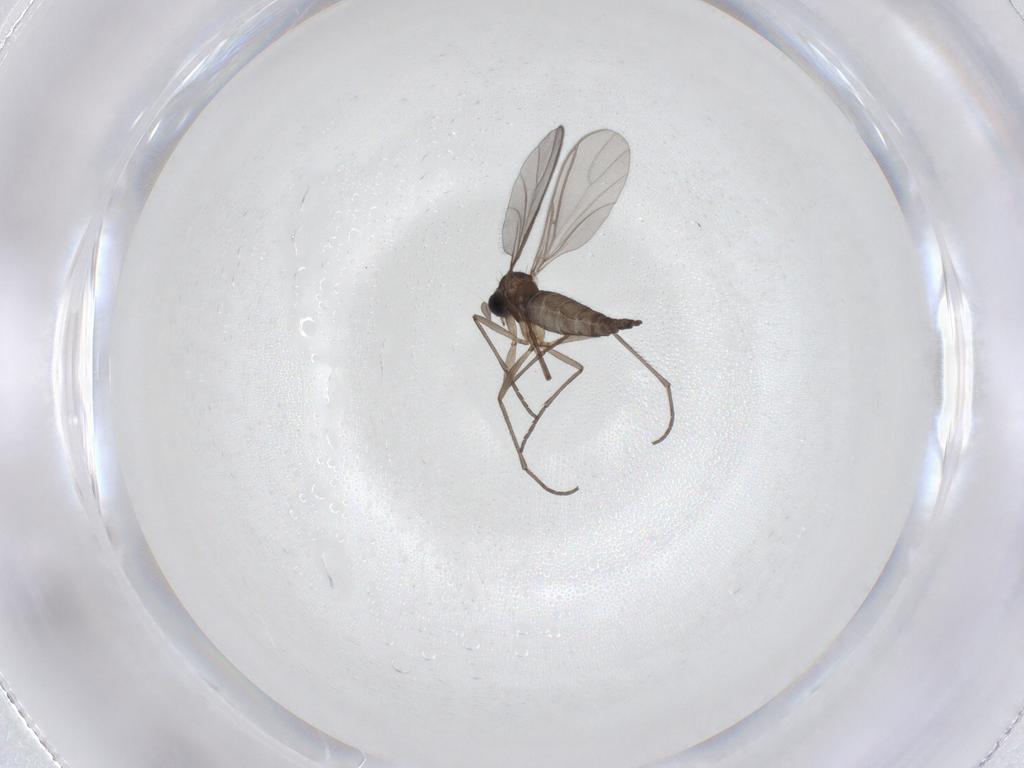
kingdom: Animalia
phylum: Arthropoda
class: Insecta
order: Diptera
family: Sciaridae
